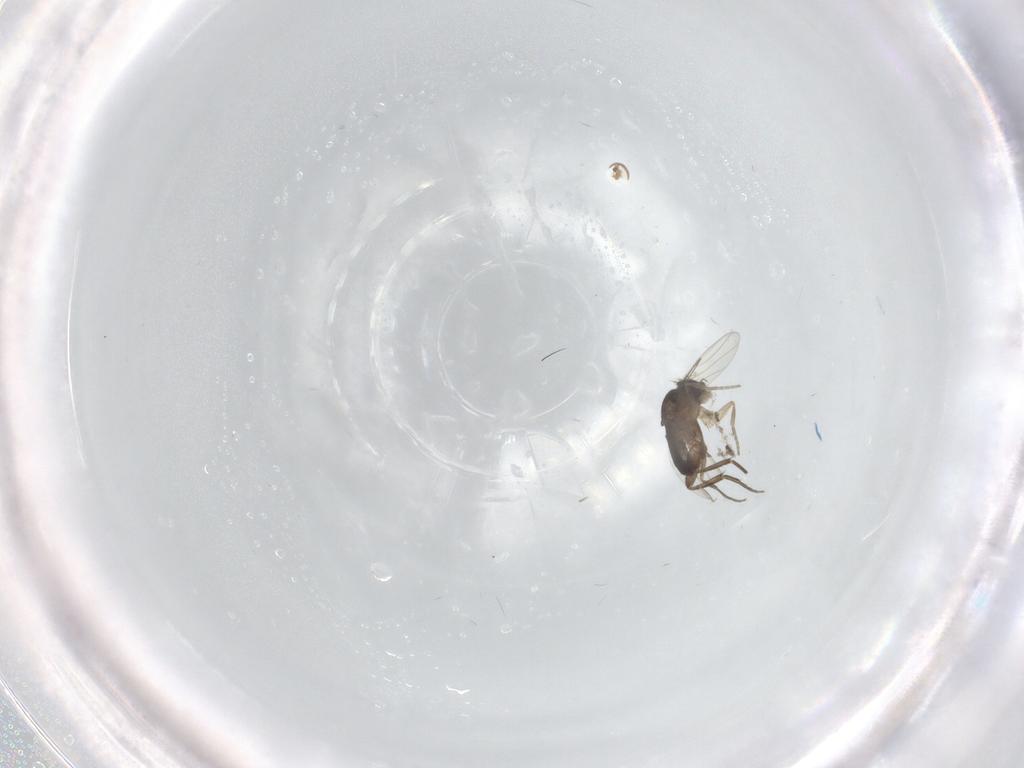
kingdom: Animalia
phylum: Arthropoda
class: Insecta
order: Diptera
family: Phoridae
